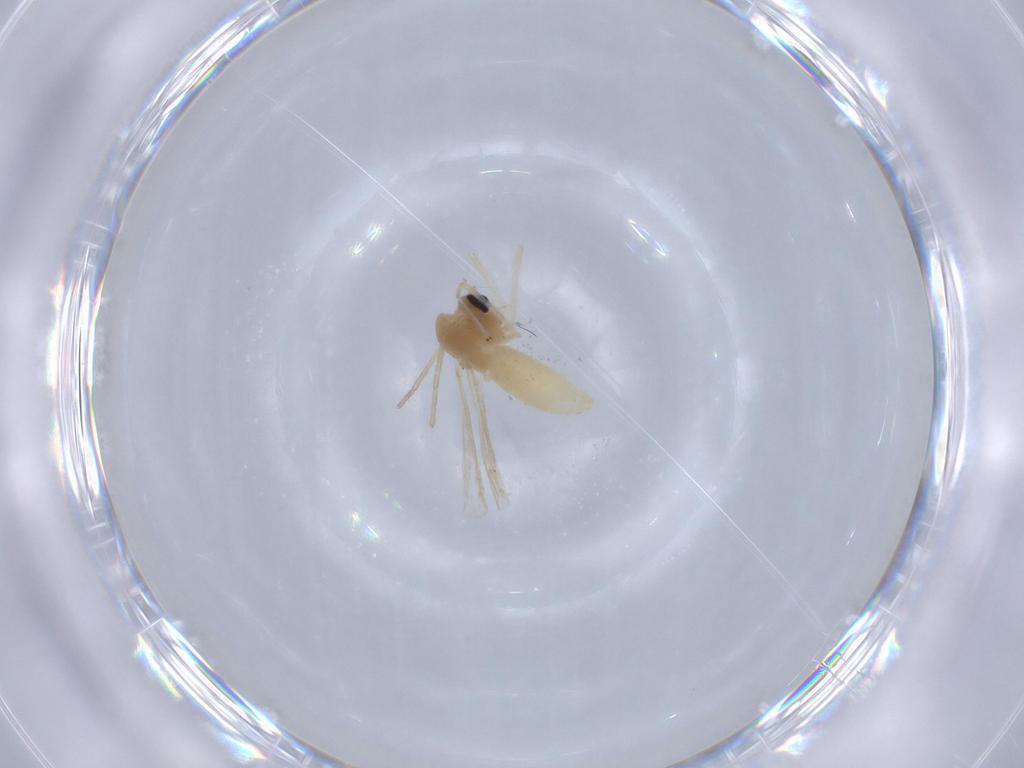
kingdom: Animalia
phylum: Arthropoda
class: Insecta
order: Diptera
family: Chironomidae
